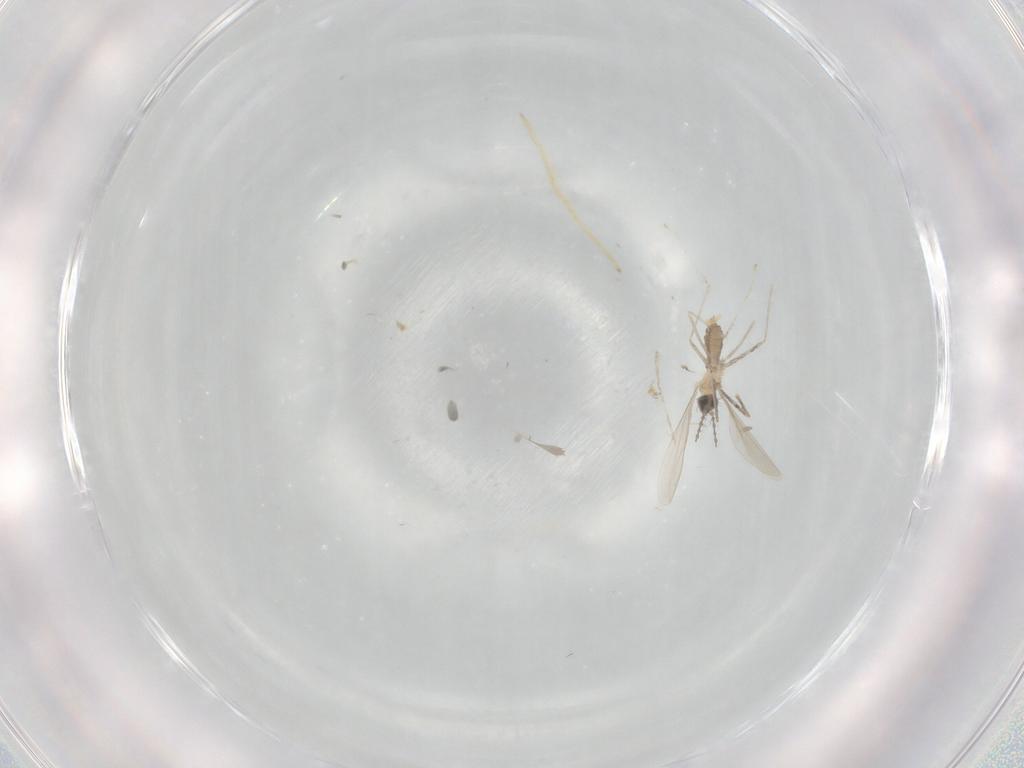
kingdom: Animalia
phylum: Arthropoda
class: Insecta
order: Diptera
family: Cecidomyiidae
